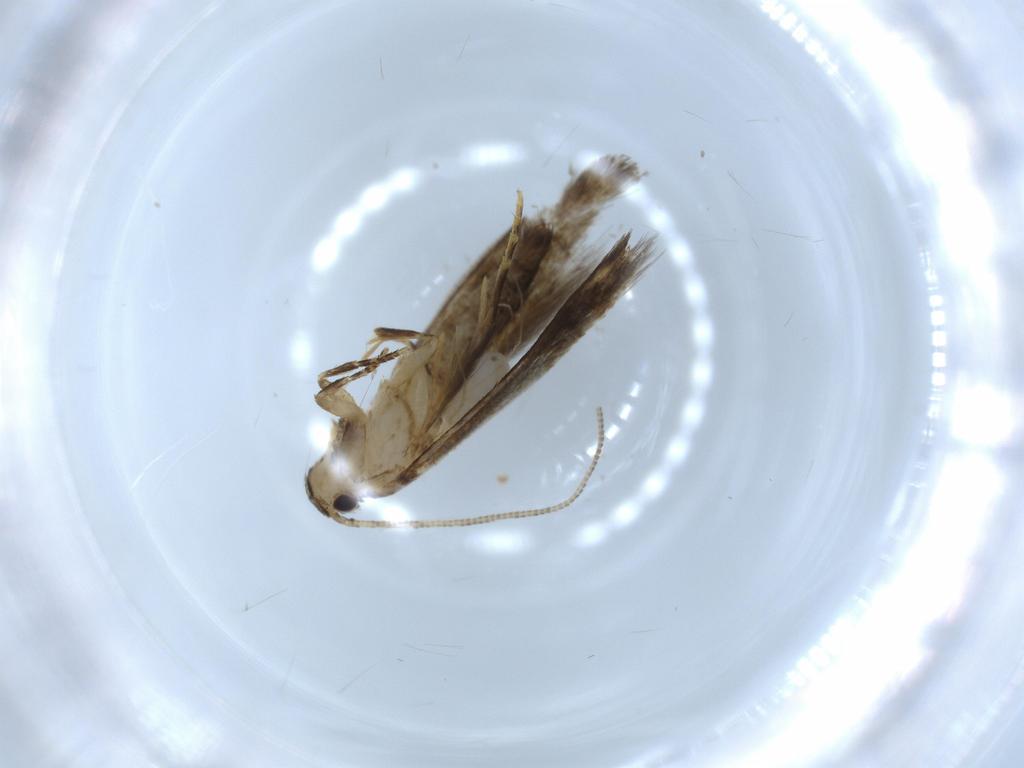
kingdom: Animalia
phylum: Arthropoda
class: Insecta
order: Lepidoptera
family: Tineidae
